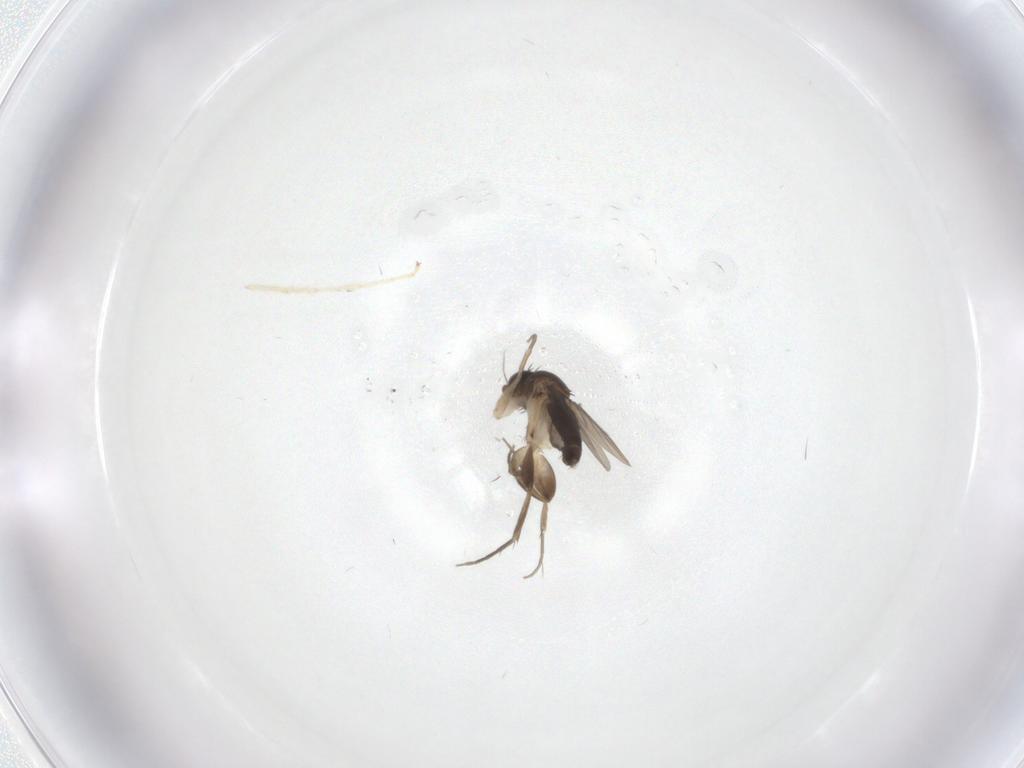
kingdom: Animalia
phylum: Arthropoda
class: Insecta
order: Diptera
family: Phoridae
